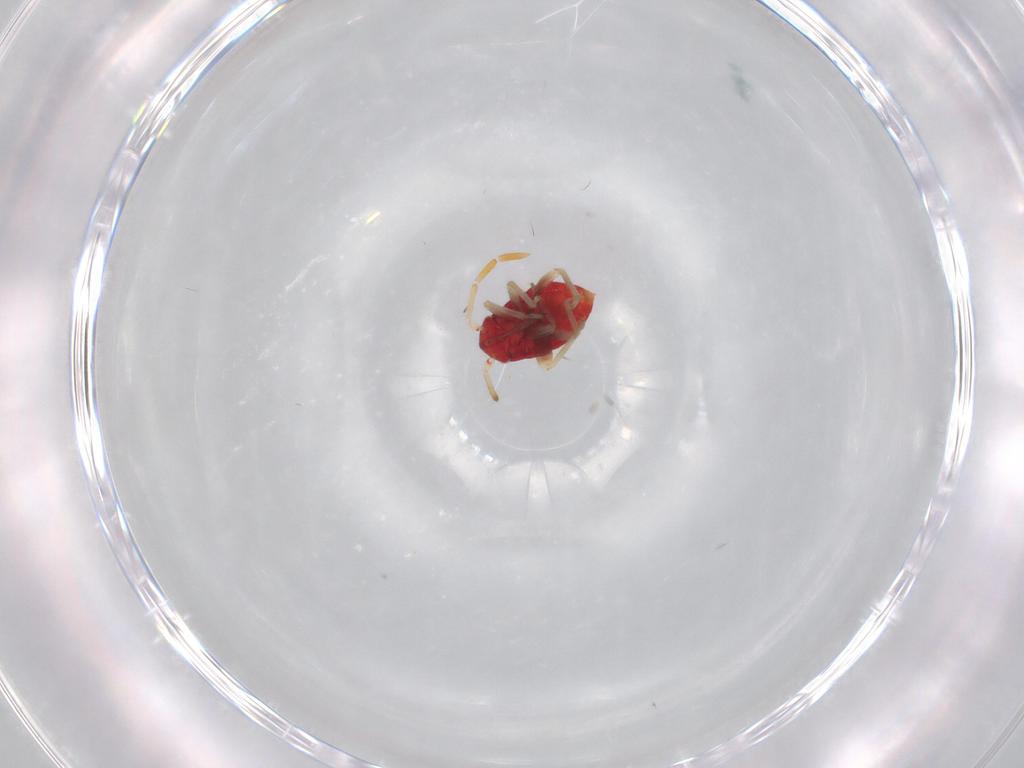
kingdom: Animalia
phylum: Arthropoda
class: Insecta
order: Hemiptera
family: Miridae
